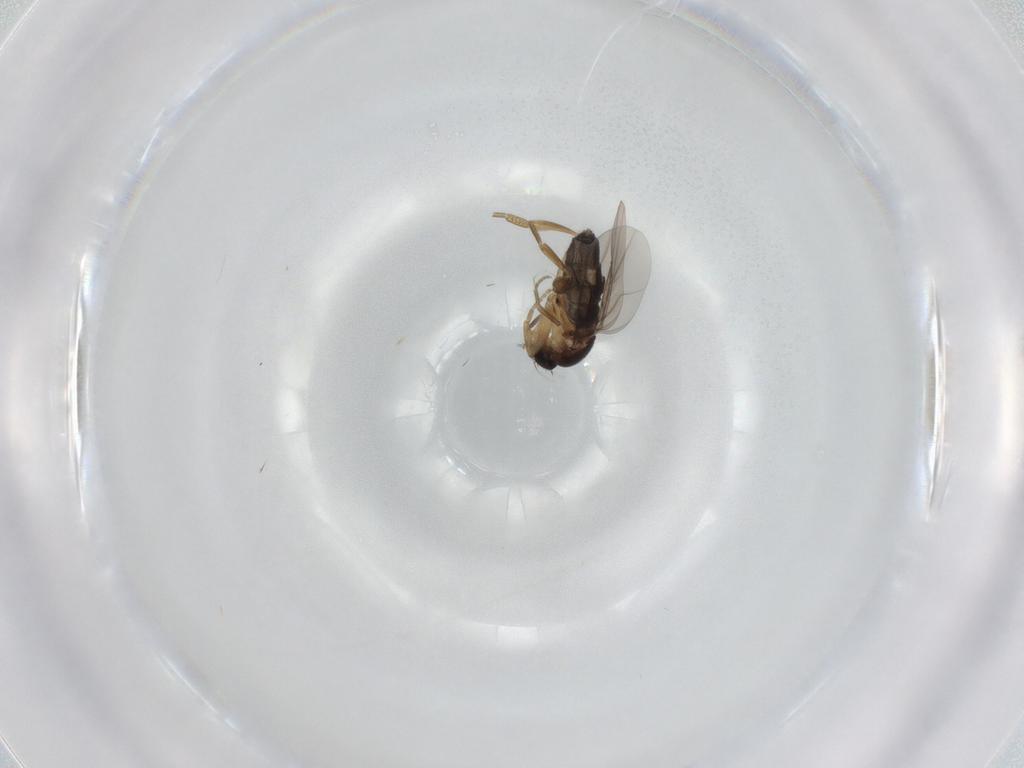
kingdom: Animalia
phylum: Arthropoda
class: Insecta
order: Diptera
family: Phoridae
